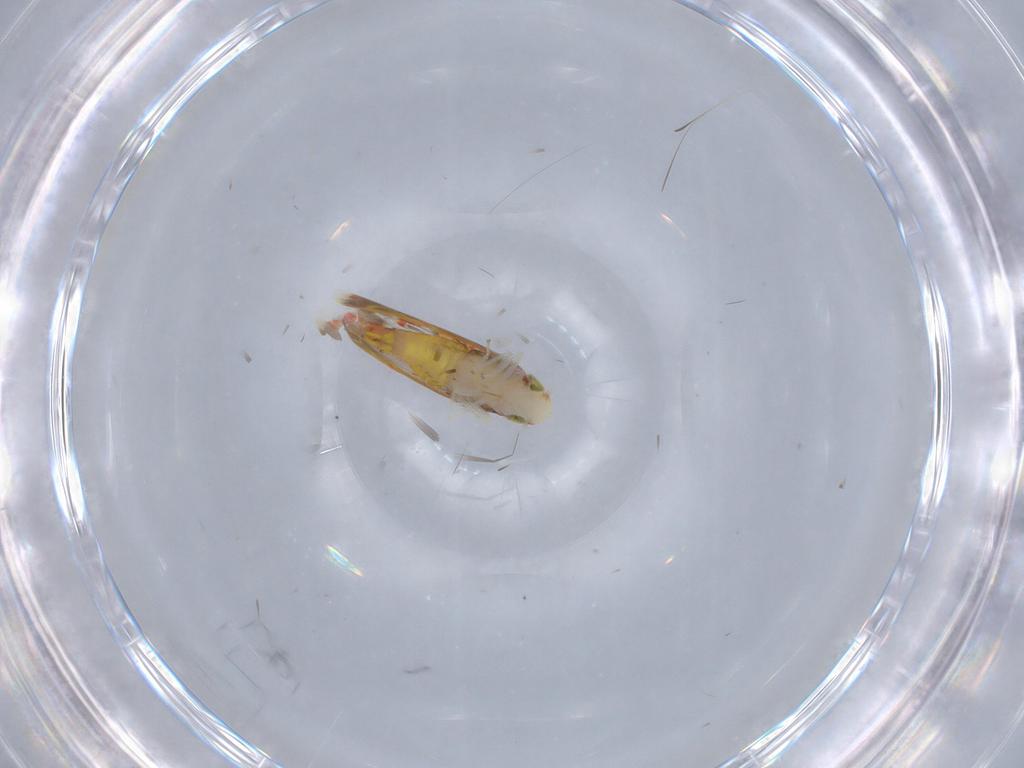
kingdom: Animalia
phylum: Arthropoda
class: Insecta
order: Hemiptera
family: Cicadellidae
